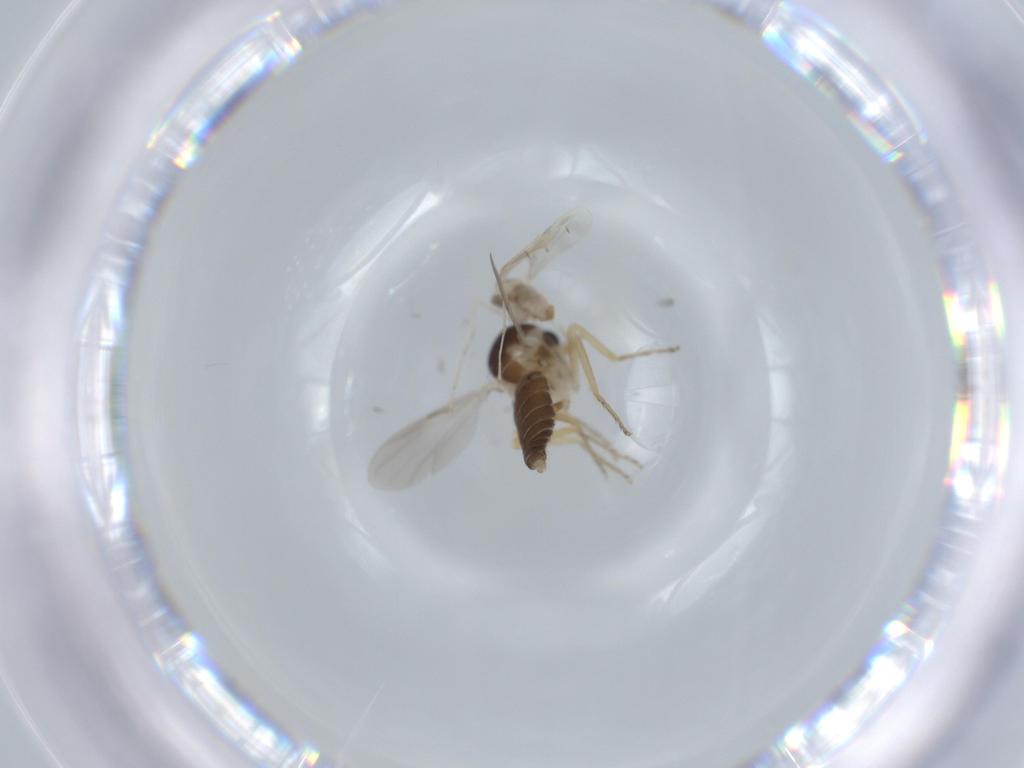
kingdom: Animalia
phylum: Arthropoda
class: Insecta
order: Diptera
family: Ceratopogonidae
